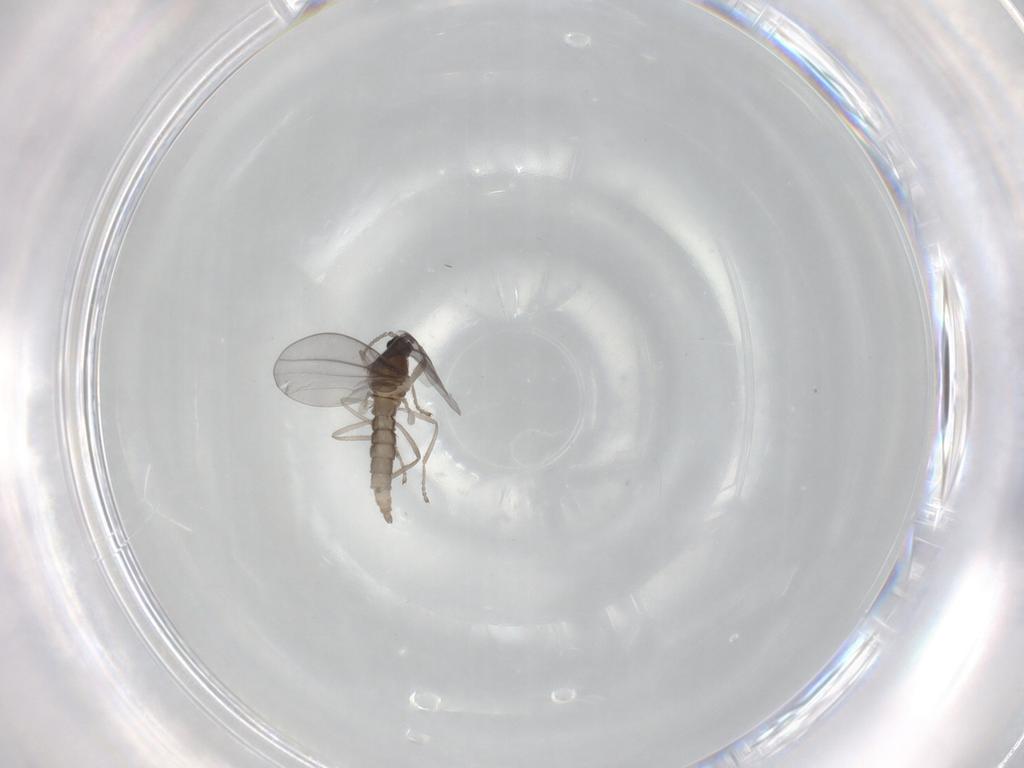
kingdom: Animalia
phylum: Arthropoda
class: Insecta
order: Diptera
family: Cecidomyiidae
